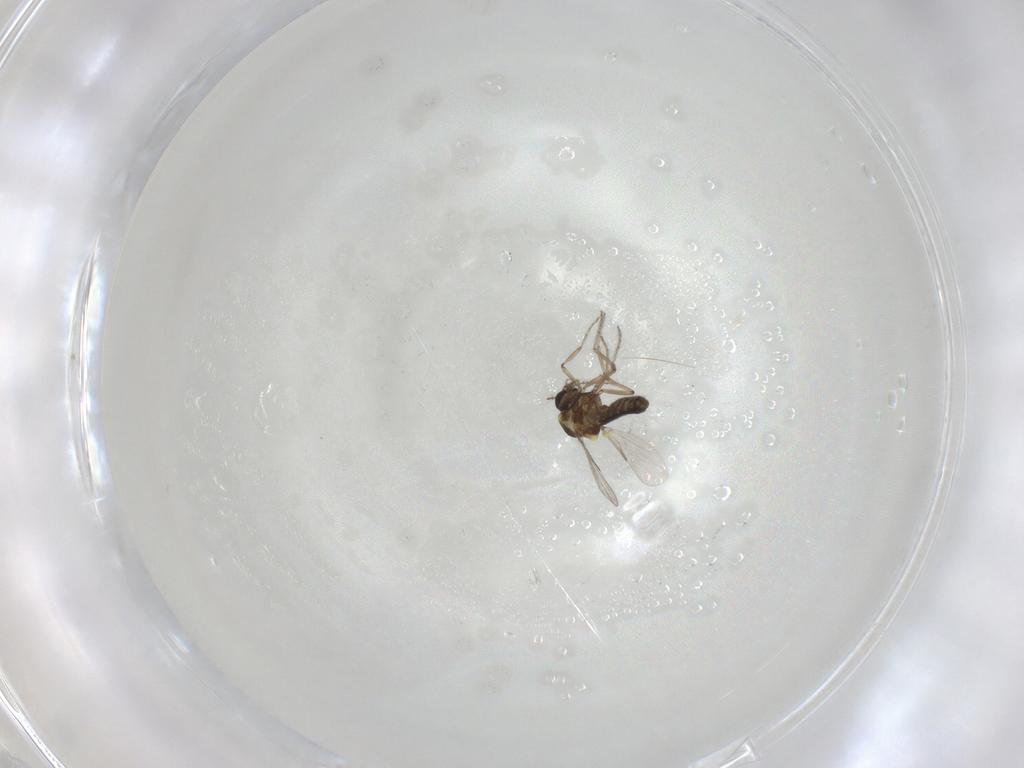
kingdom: Animalia
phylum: Arthropoda
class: Insecta
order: Diptera
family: Ceratopogonidae
